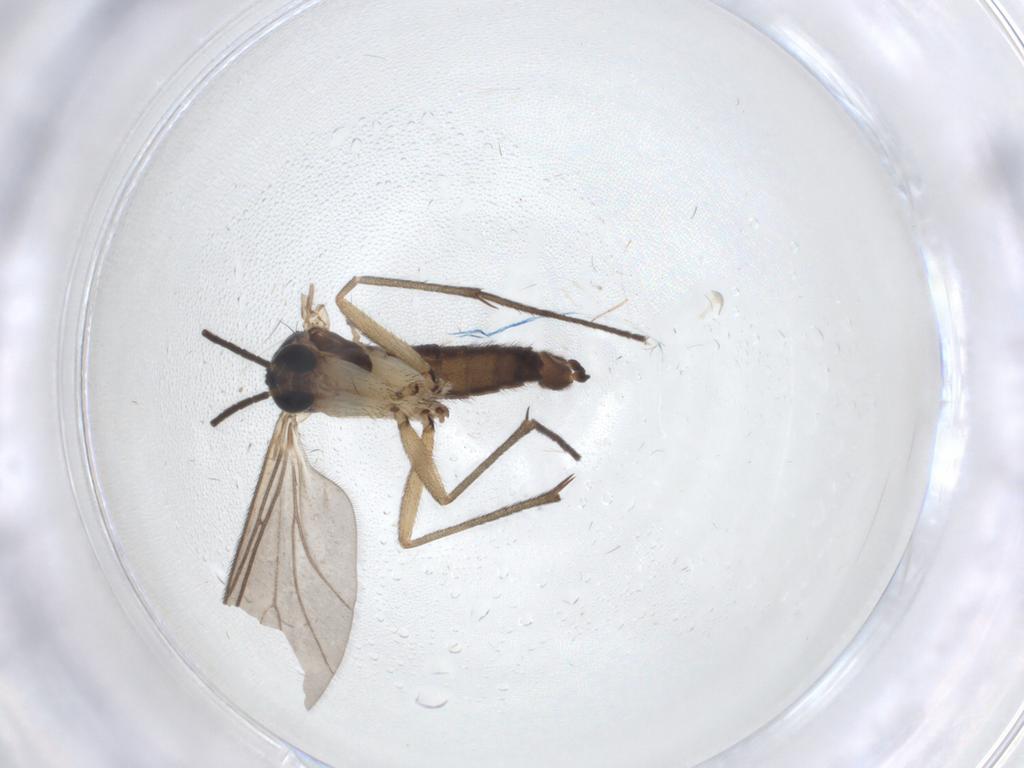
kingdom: Animalia
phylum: Arthropoda
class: Insecta
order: Diptera
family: Sciaridae
